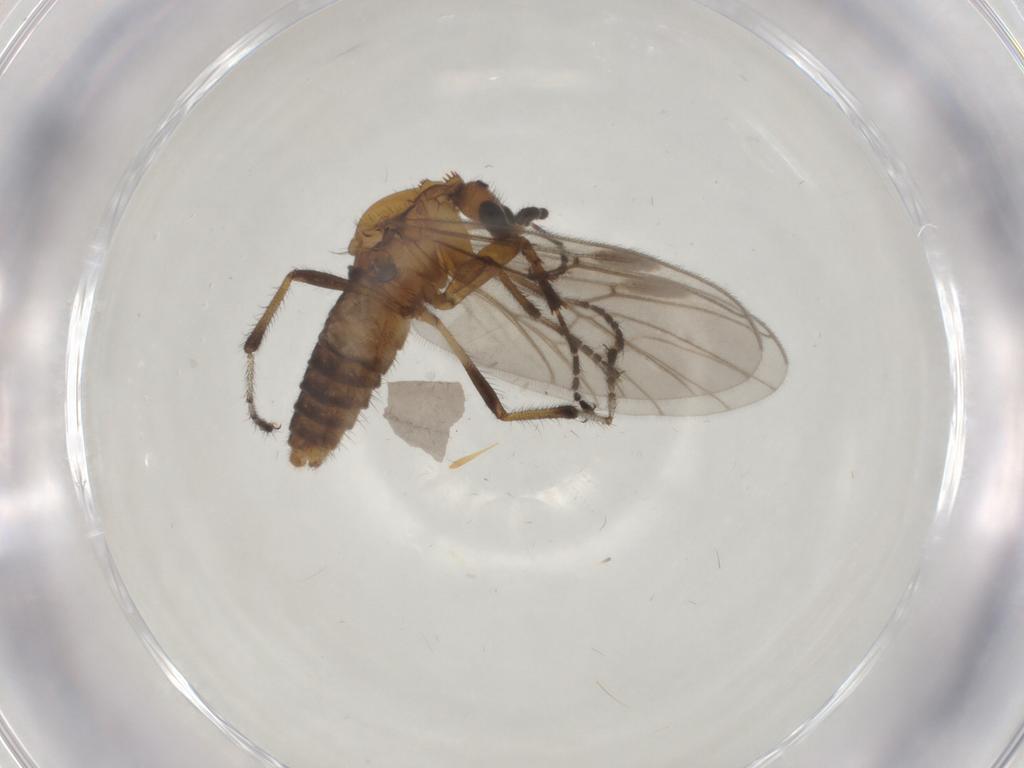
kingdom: Animalia
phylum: Arthropoda
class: Insecta
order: Diptera
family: Bibionidae
